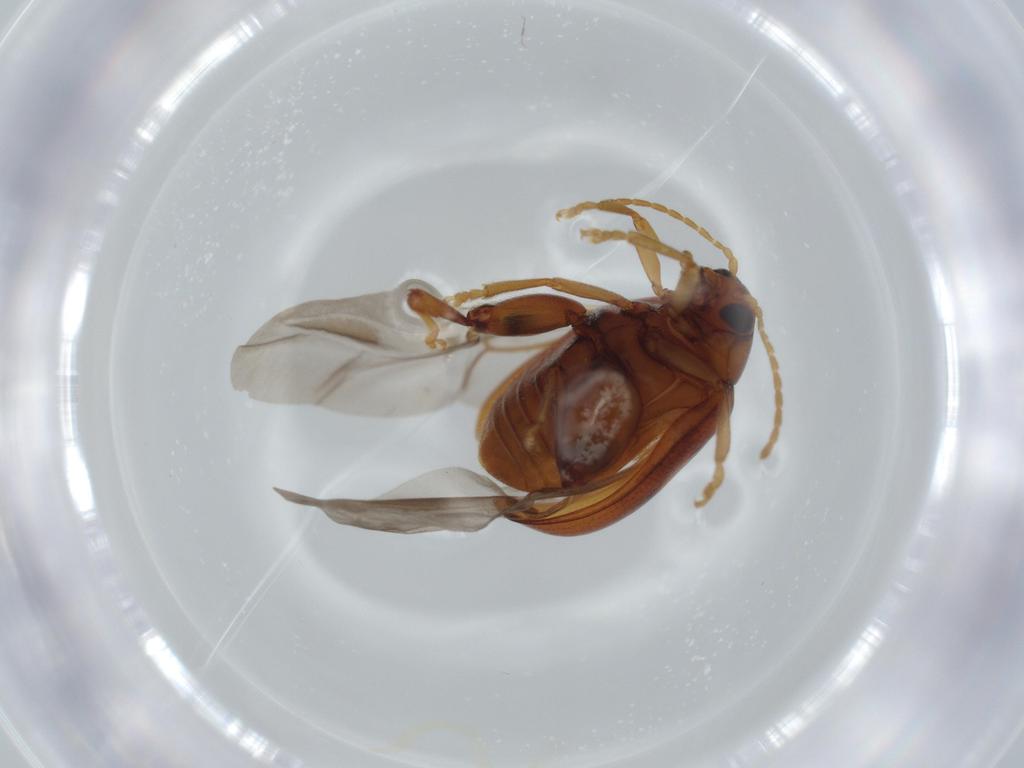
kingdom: Animalia
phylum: Arthropoda
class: Insecta
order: Coleoptera
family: Chrysomelidae
